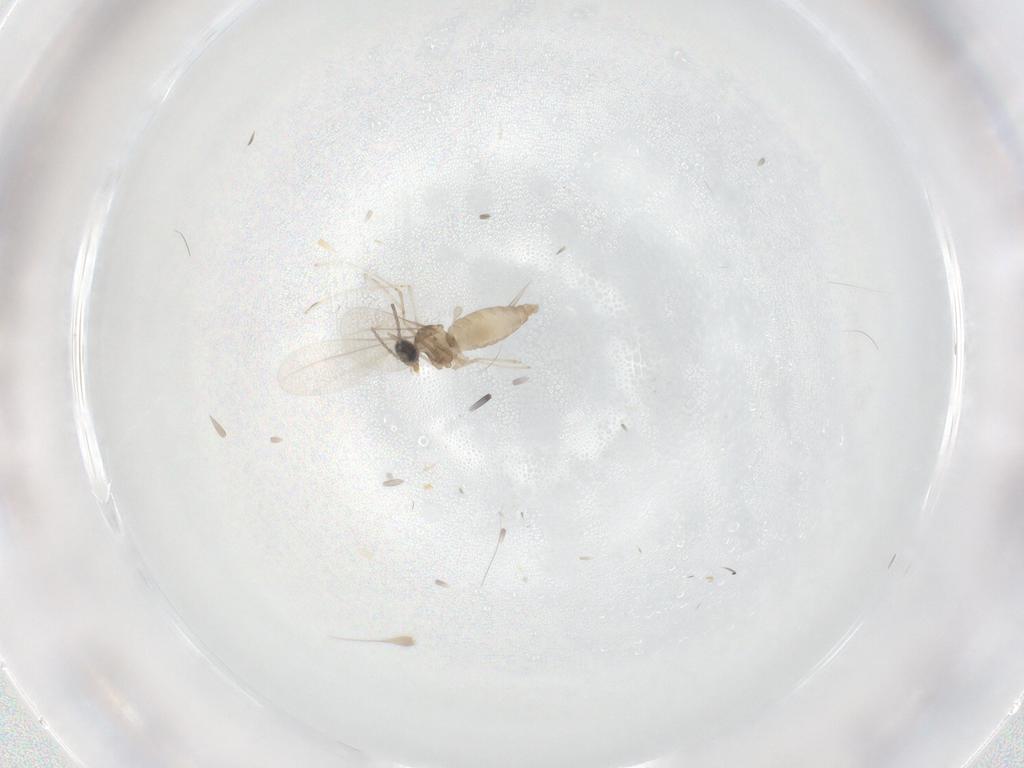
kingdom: Animalia
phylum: Arthropoda
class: Insecta
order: Diptera
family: Cecidomyiidae
